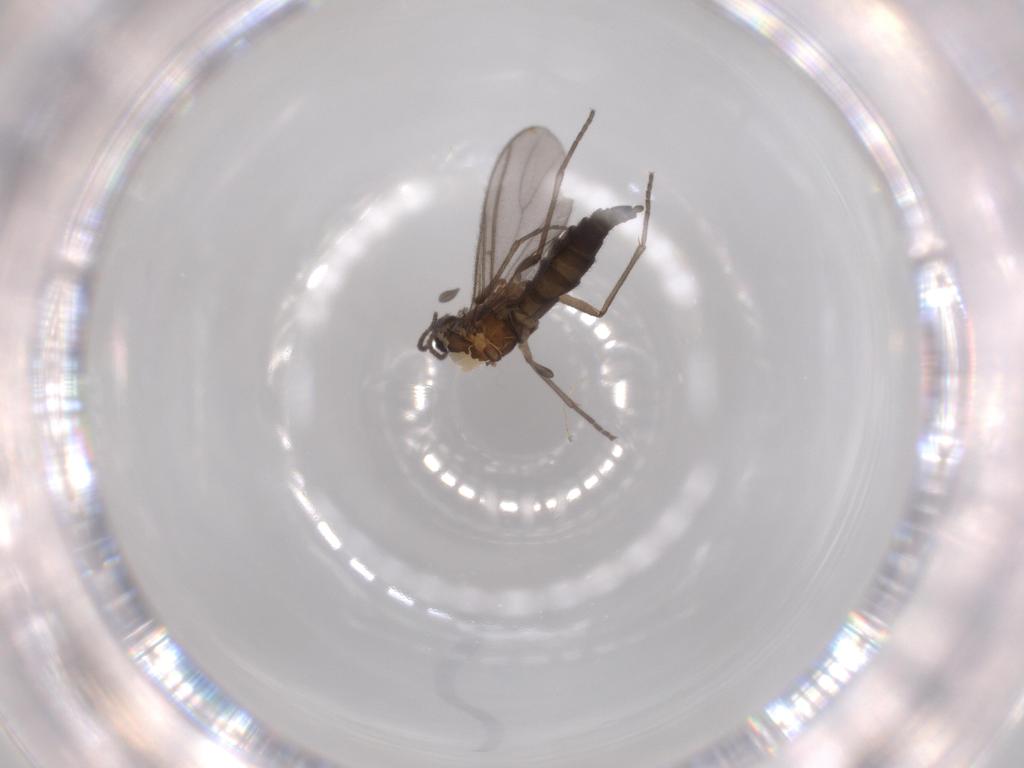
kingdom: Animalia
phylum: Arthropoda
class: Insecta
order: Diptera
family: Sciaridae
